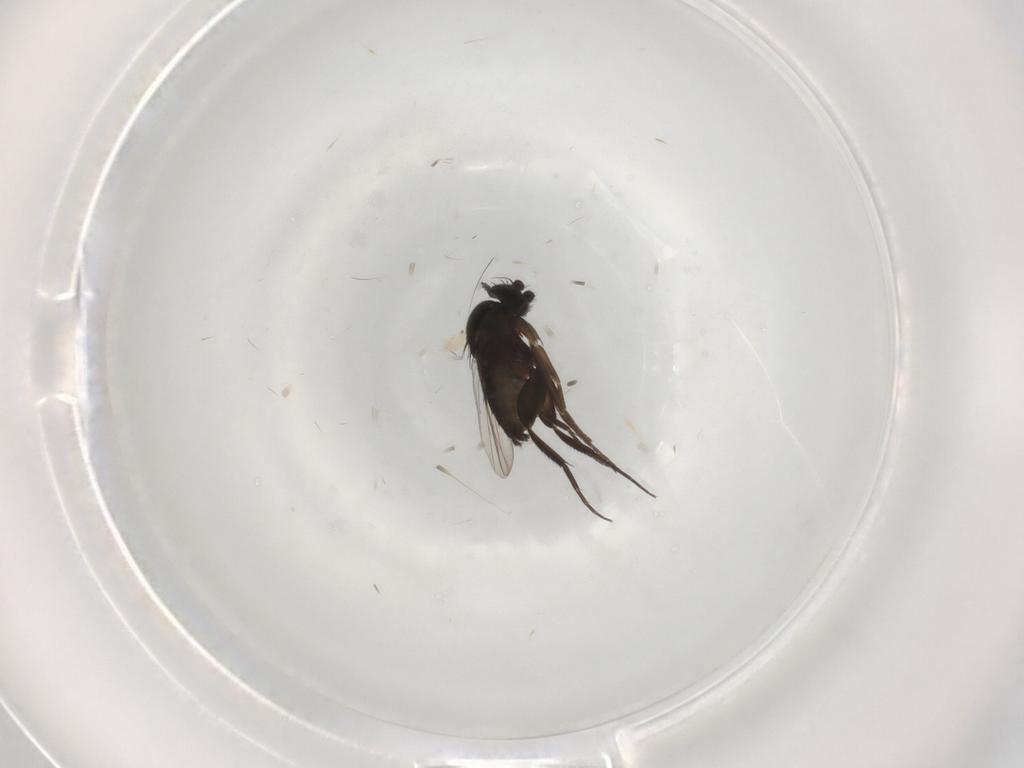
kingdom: Animalia
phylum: Arthropoda
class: Insecta
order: Diptera
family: Phoridae
